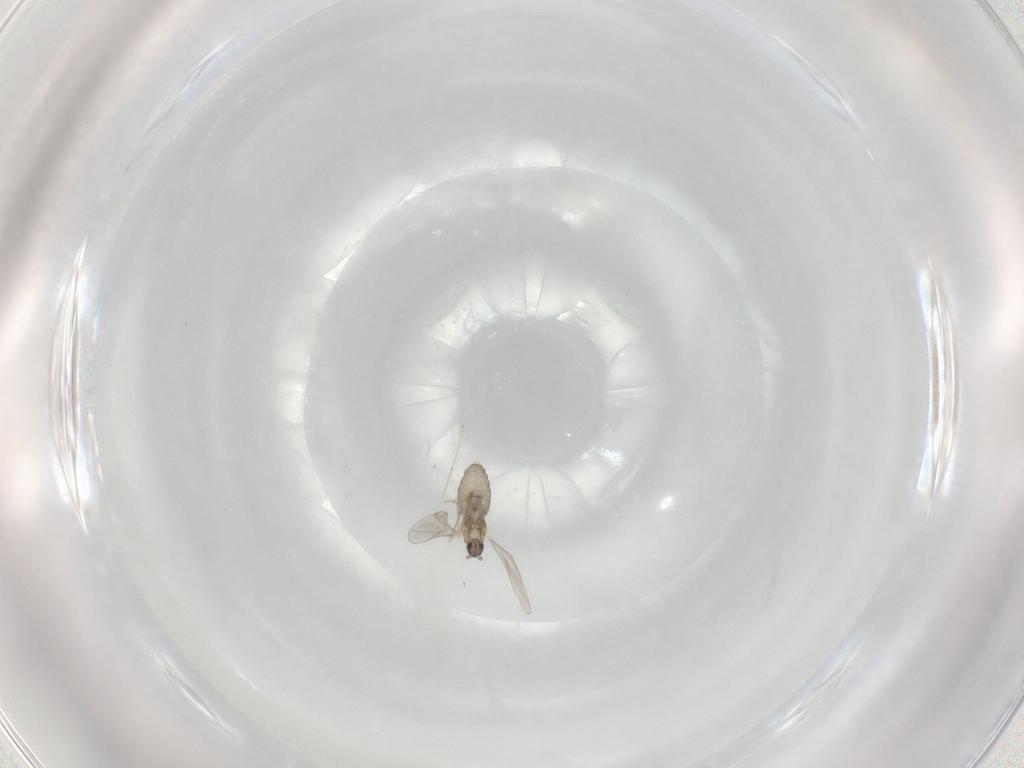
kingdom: Animalia
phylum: Arthropoda
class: Insecta
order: Diptera
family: Cecidomyiidae
